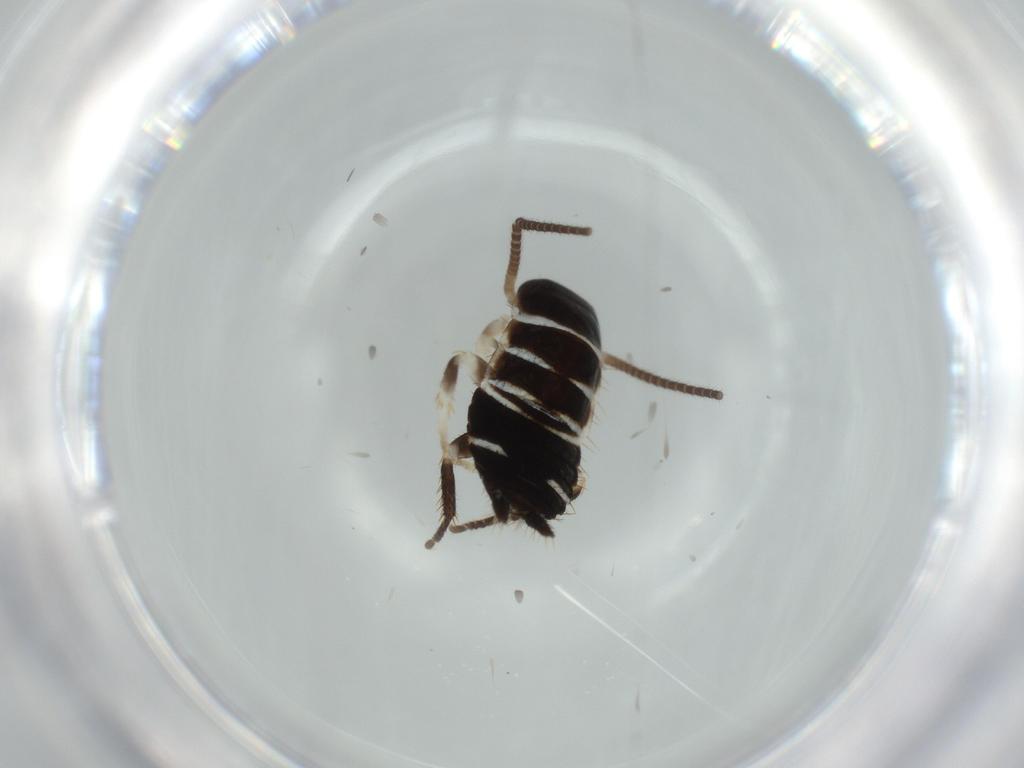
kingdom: Animalia
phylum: Arthropoda
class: Insecta
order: Blattodea
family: Ectobiidae
